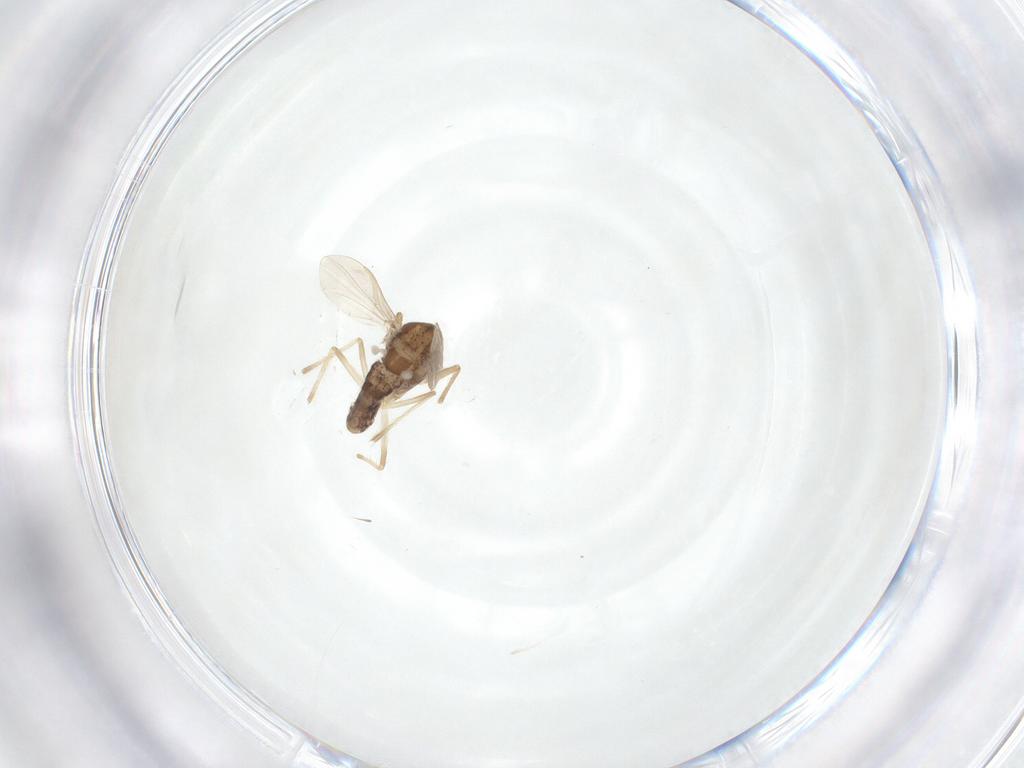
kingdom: Animalia
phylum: Arthropoda
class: Insecta
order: Diptera
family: Chironomidae
